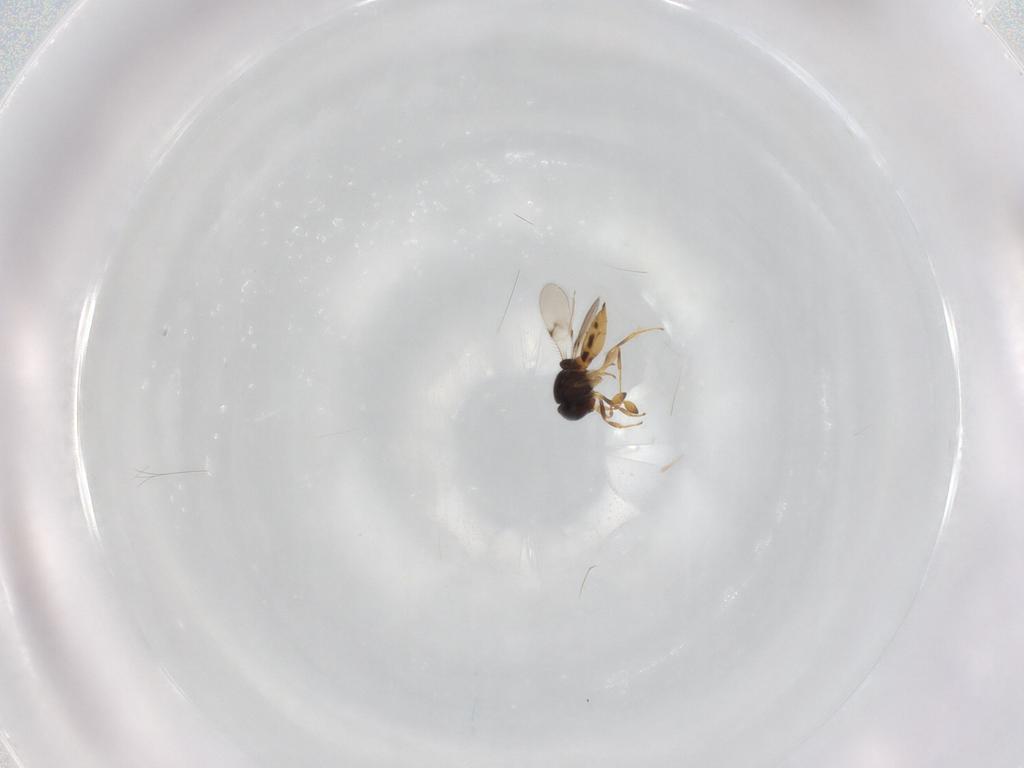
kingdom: Animalia
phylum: Arthropoda
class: Insecta
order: Hymenoptera
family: Scelionidae
